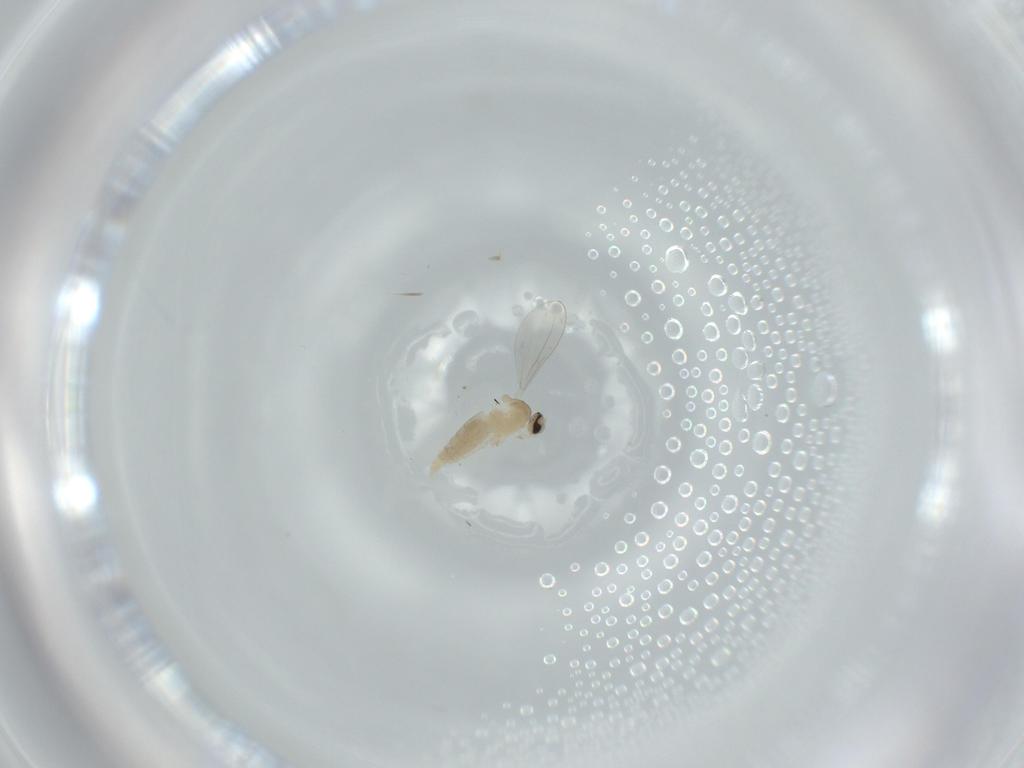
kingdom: Animalia
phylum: Arthropoda
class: Insecta
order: Diptera
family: Cecidomyiidae
